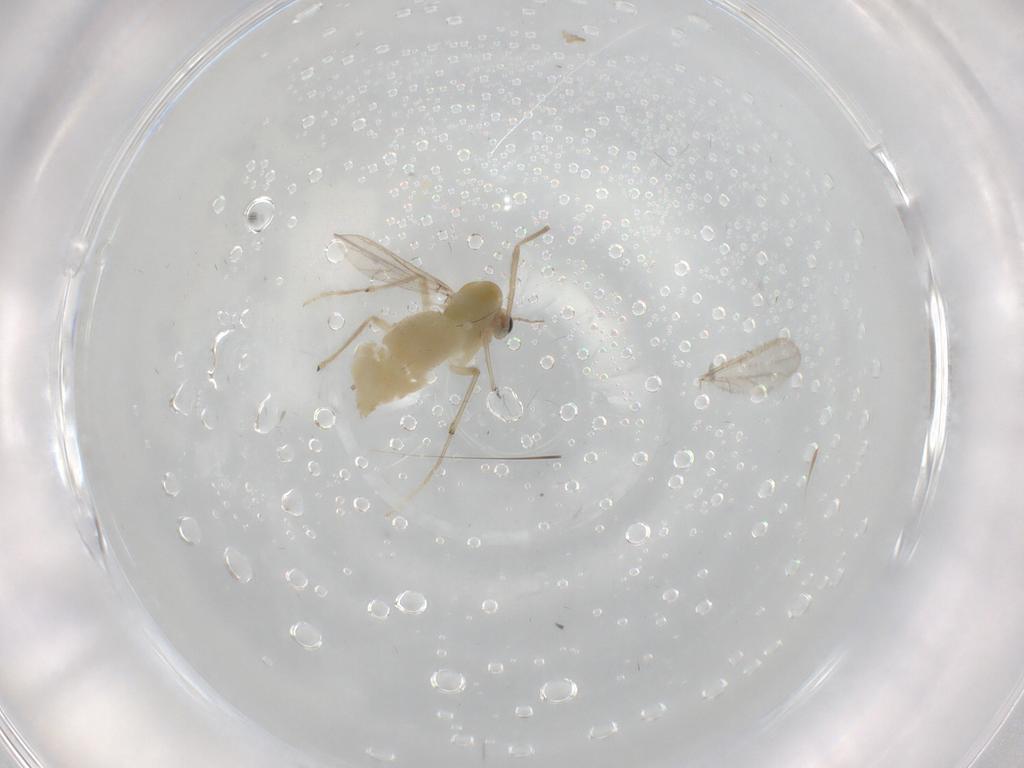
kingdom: Animalia
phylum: Arthropoda
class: Insecta
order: Diptera
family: Chironomidae
